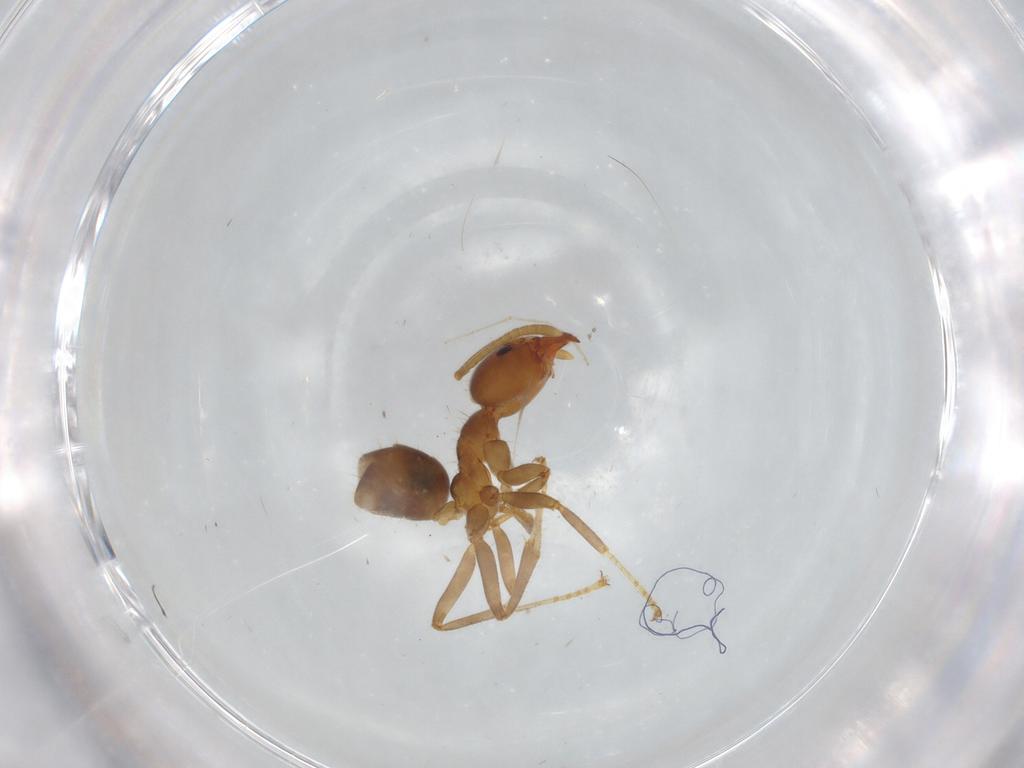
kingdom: Animalia
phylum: Arthropoda
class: Insecta
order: Hymenoptera
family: Formicidae
